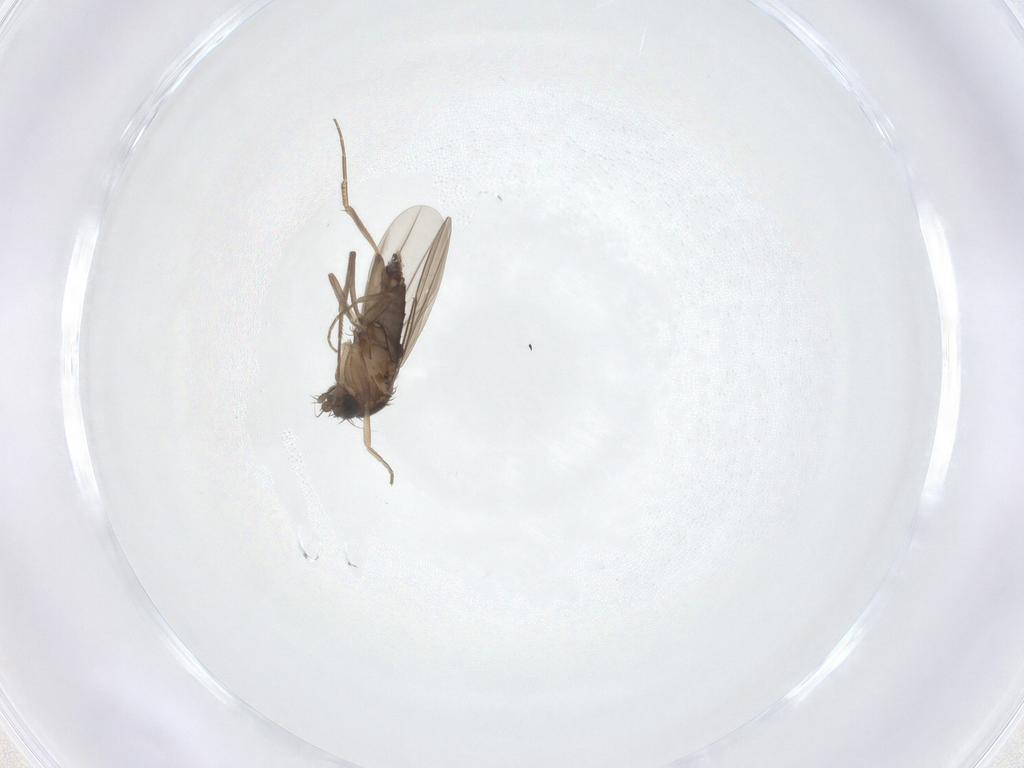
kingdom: Animalia
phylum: Arthropoda
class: Insecta
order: Diptera
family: Phoridae
